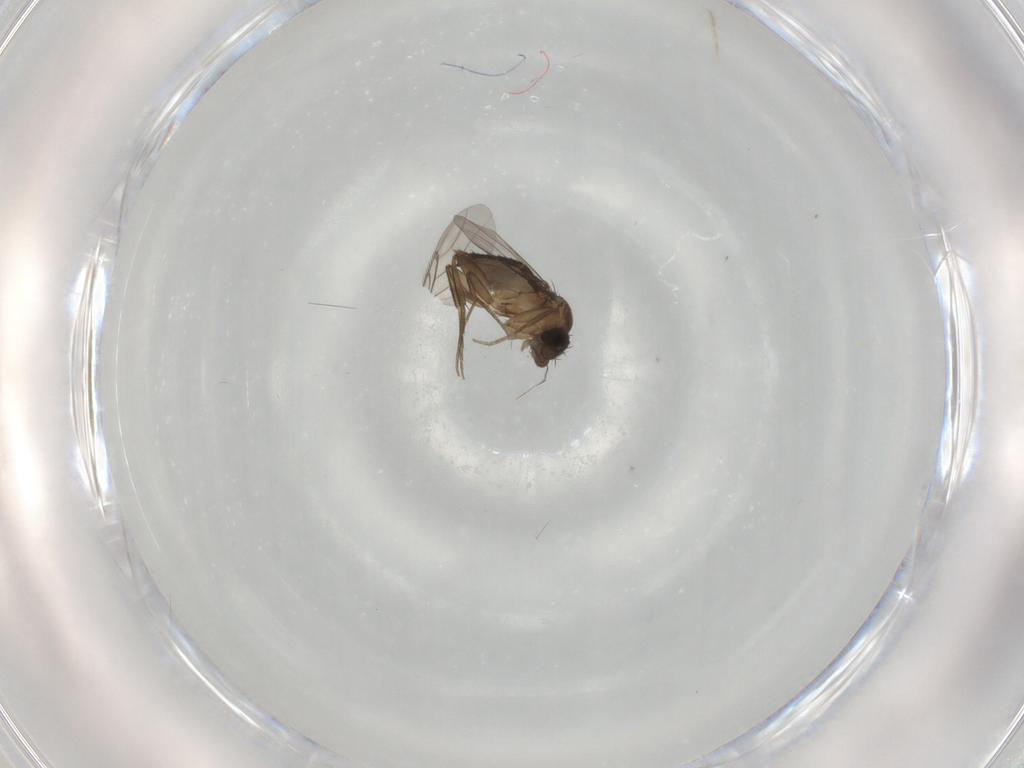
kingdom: Animalia
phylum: Arthropoda
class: Insecta
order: Diptera
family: Phoridae
